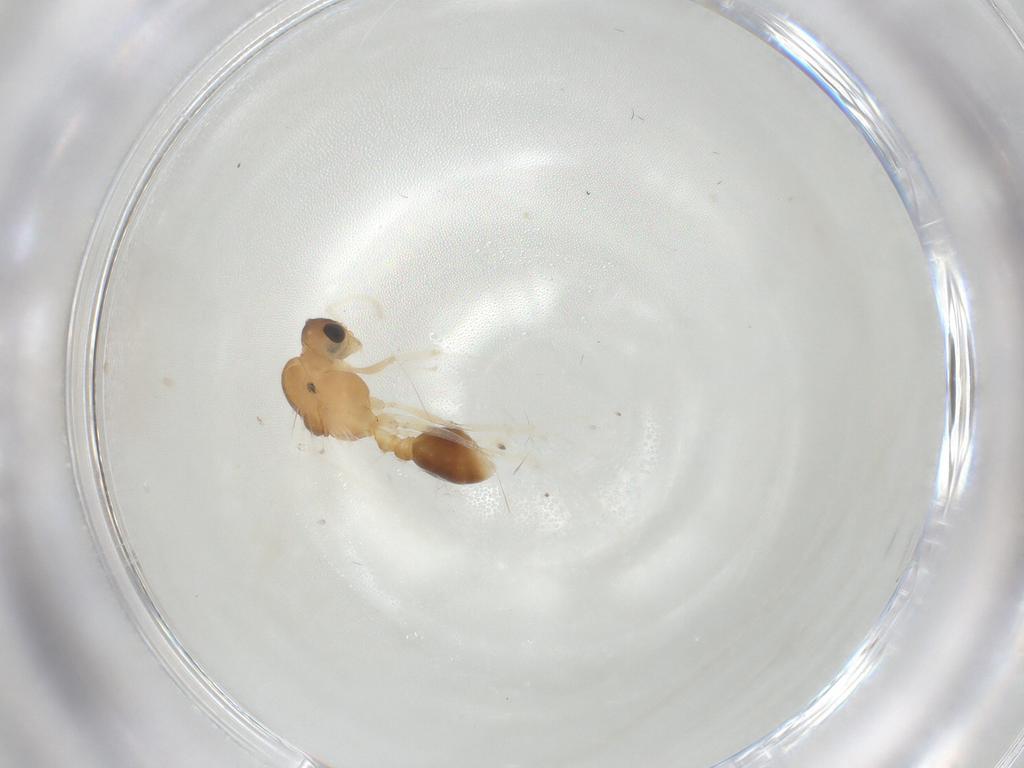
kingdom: Animalia
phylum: Arthropoda
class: Insecta
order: Hymenoptera
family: Formicidae
